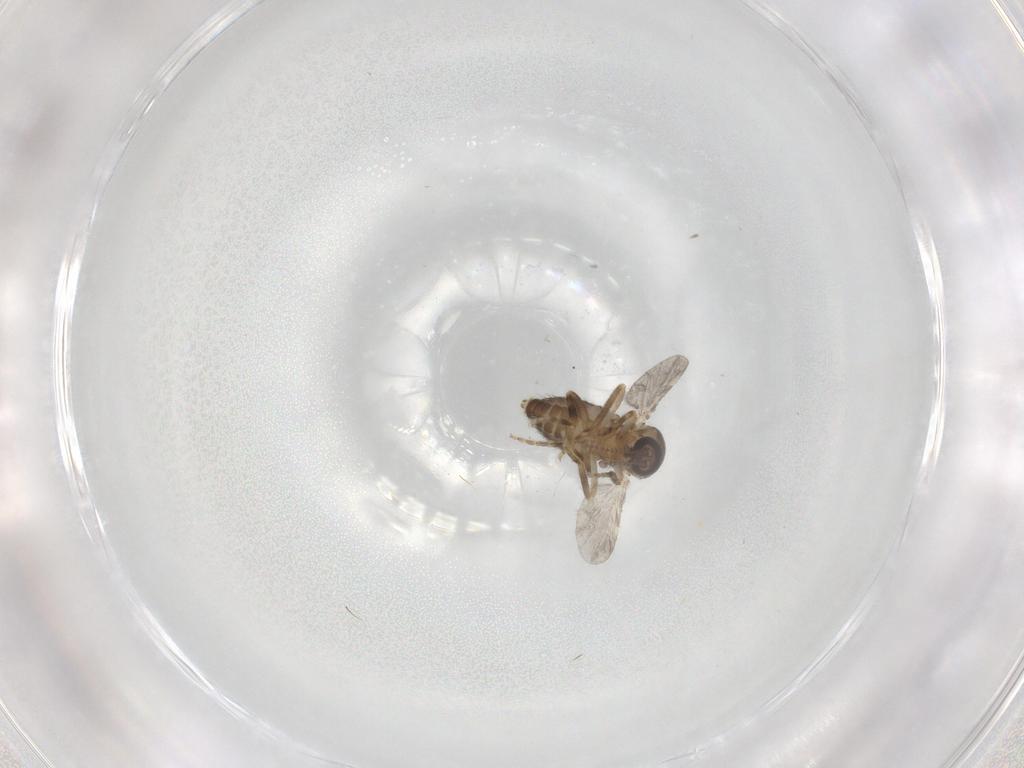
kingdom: Animalia
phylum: Arthropoda
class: Insecta
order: Diptera
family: Ceratopogonidae
